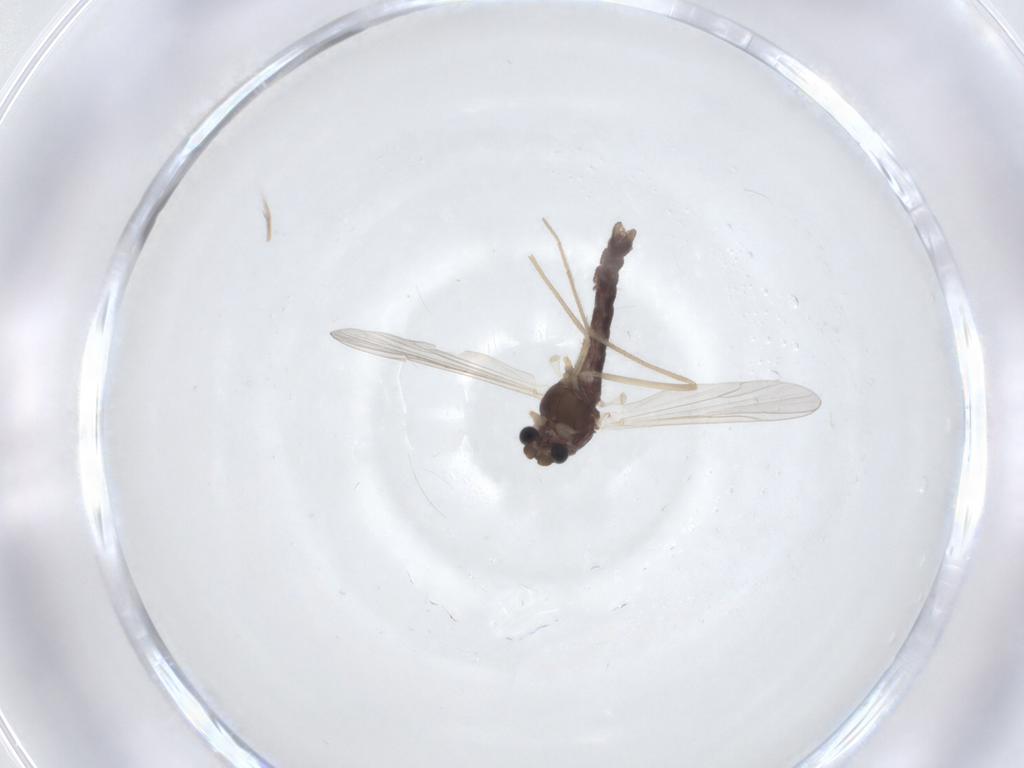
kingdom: Animalia
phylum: Arthropoda
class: Insecta
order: Diptera
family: Chironomidae
